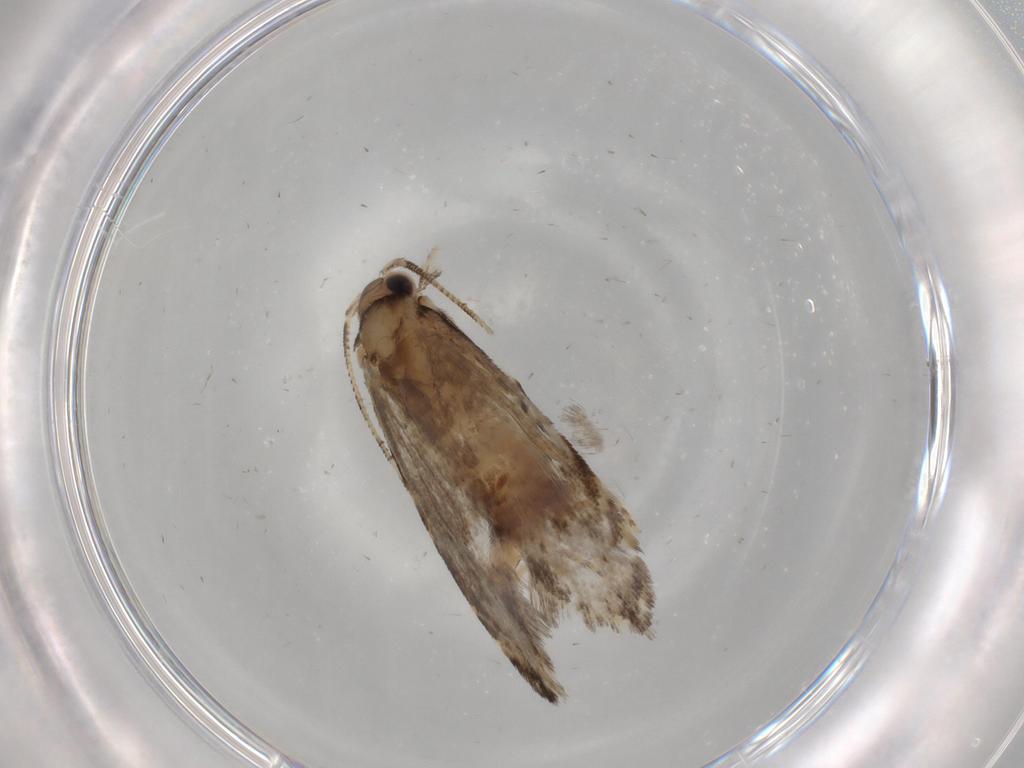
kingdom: Animalia
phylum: Arthropoda
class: Insecta
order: Lepidoptera
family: Tineidae
